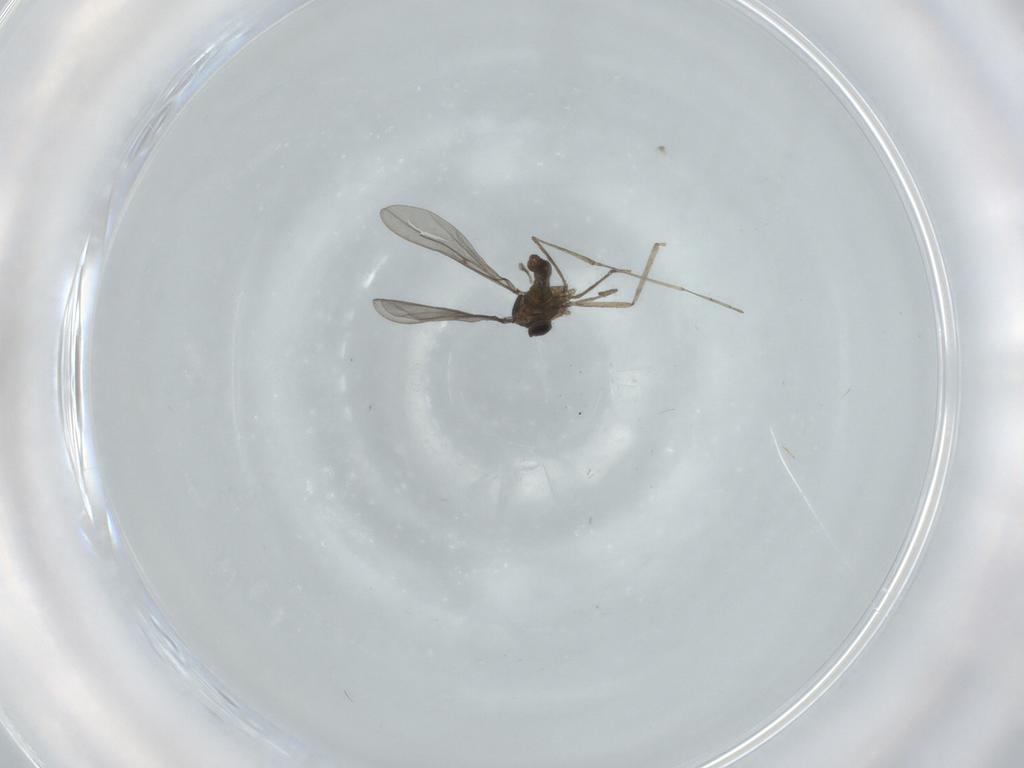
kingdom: Animalia
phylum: Arthropoda
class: Insecta
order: Diptera
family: Cecidomyiidae
